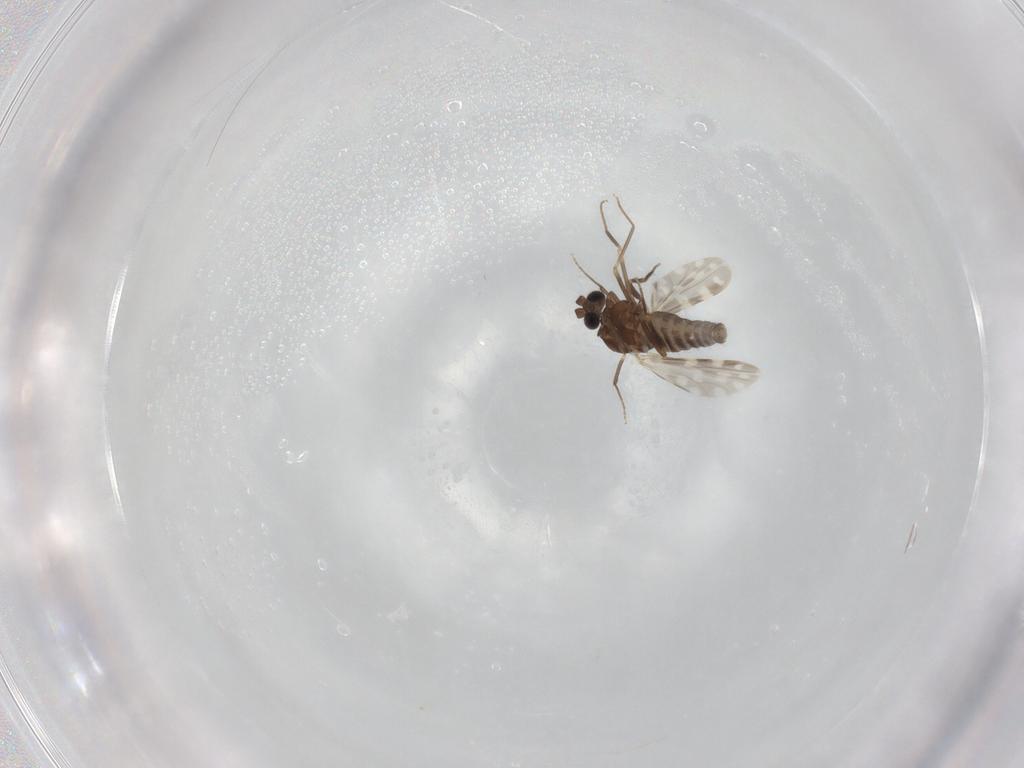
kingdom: Animalia
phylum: Arthropoda
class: Insecta
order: Diptera
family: Ceratopogonidae
